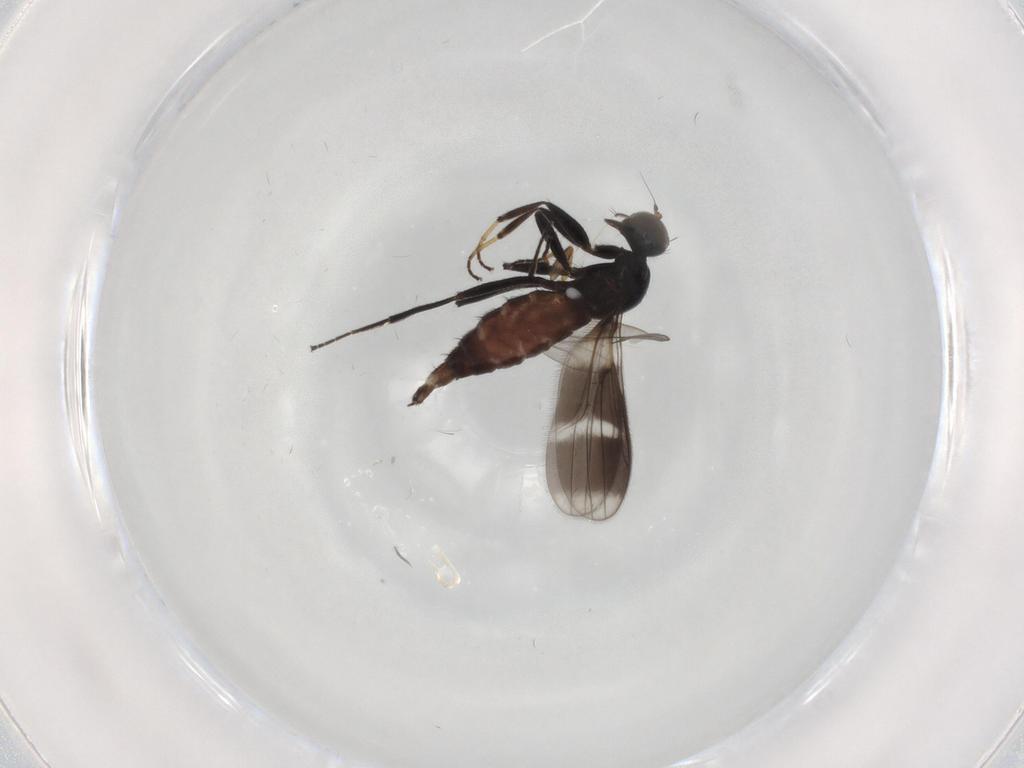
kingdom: Animalia
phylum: Arthropoda
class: Insecta
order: Diptera
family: Hybotidae
